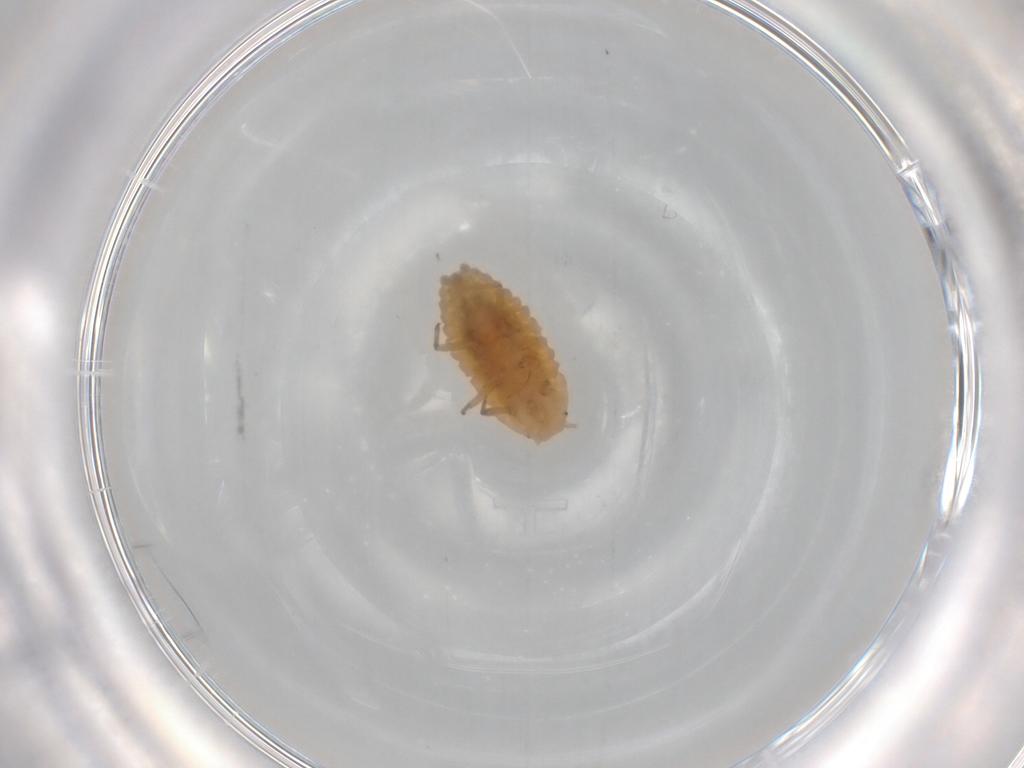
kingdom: Animalia
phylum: Arthropoda
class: Insecta
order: Hemiptera
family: Pseudococcidae
